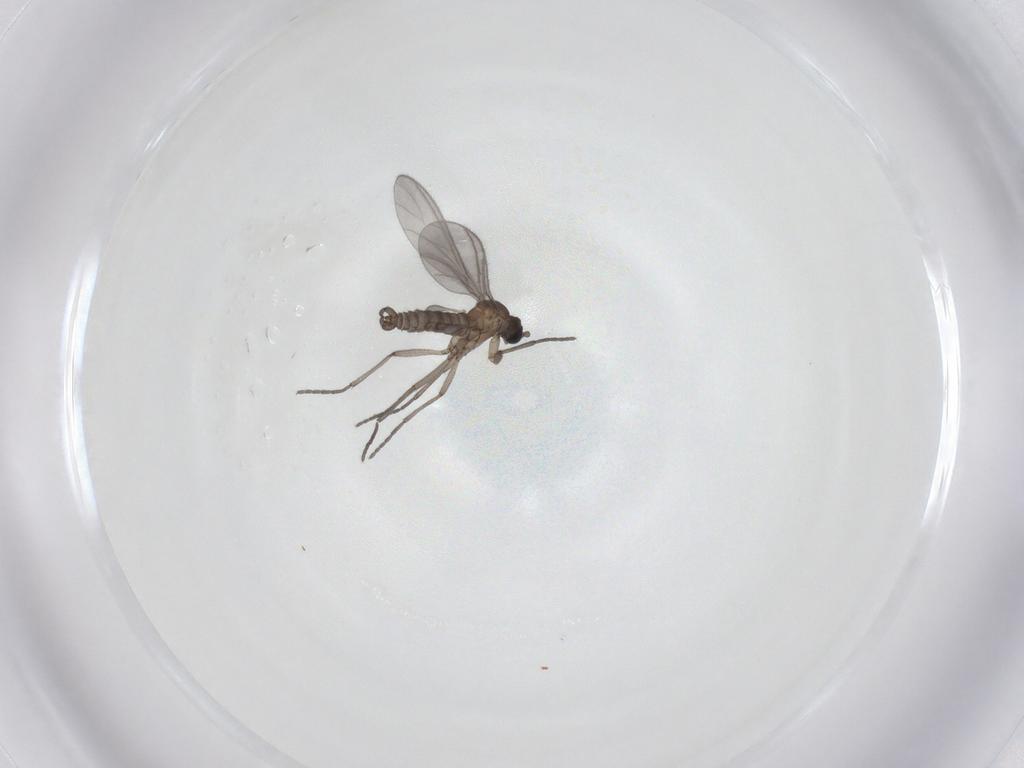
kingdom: Animalia
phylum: Arthropoda
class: Insecta
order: Diptera
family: Sciaridae
